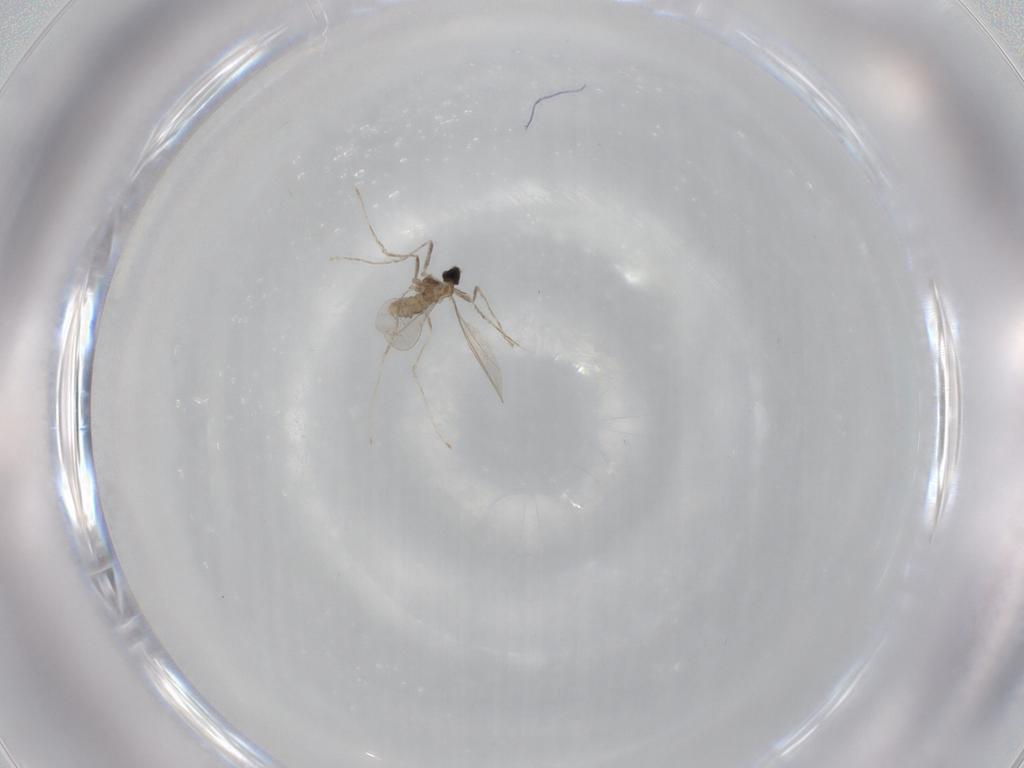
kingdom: Animalia
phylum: Arthropoda
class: Insecta
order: Diptera
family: Cecidomyiidae
